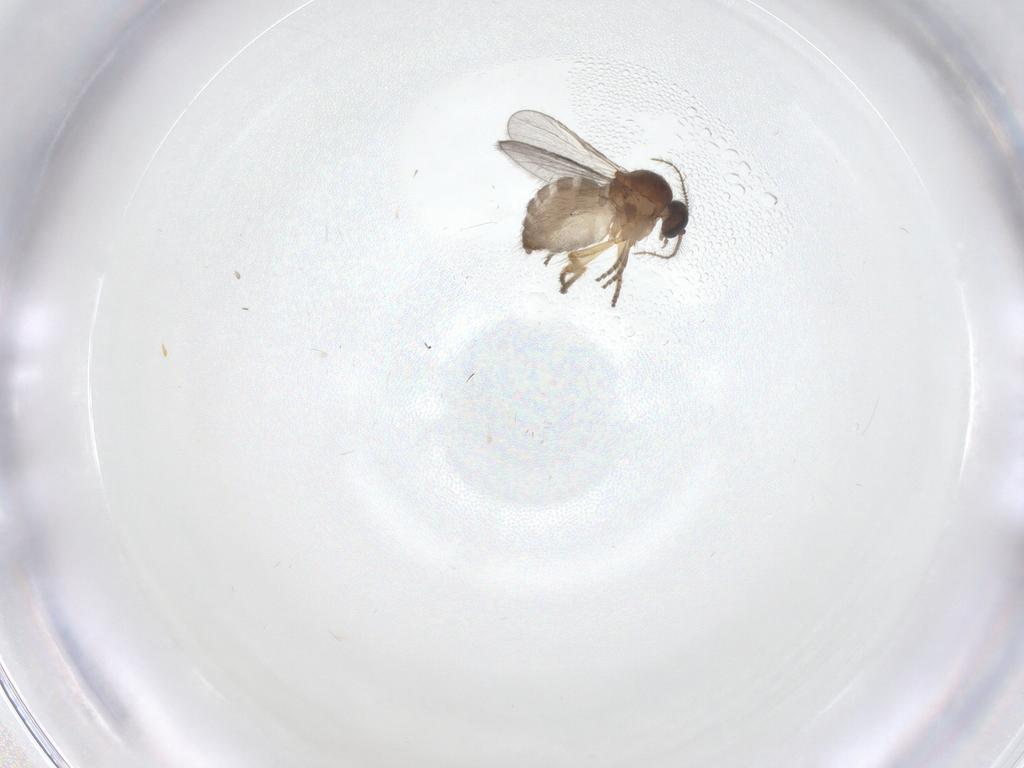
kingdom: Animalia
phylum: Arthropoda
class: Insecta
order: Diptera
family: Ceratopogonidae
